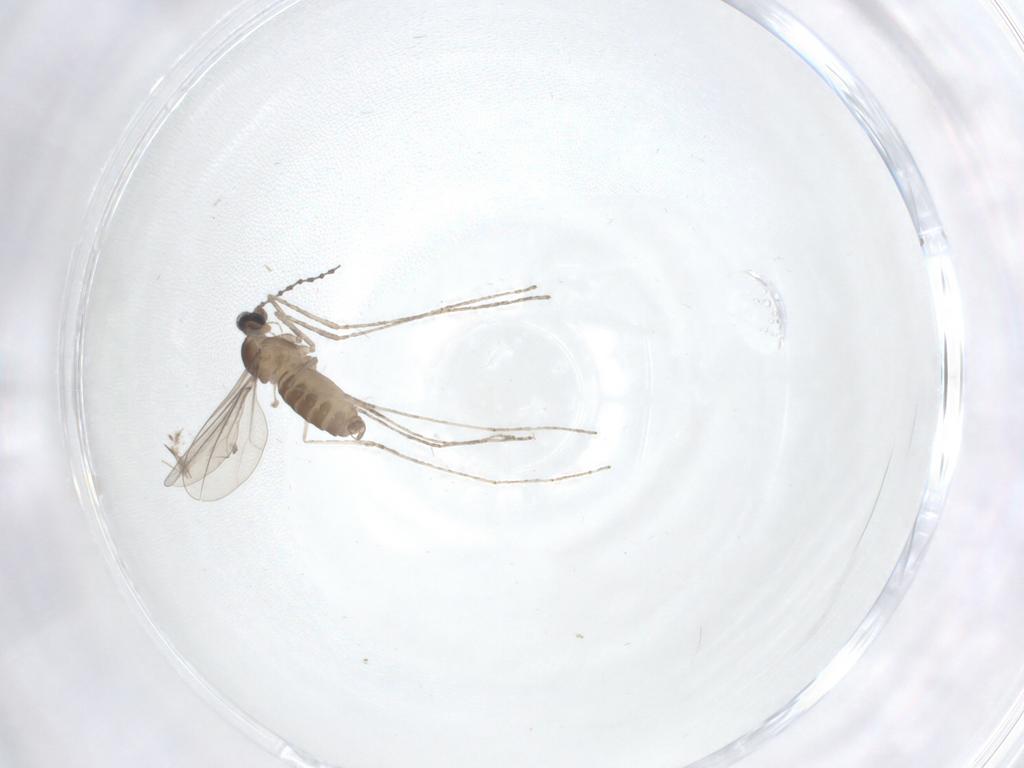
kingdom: Animalia
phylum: Arthropoda
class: Insecta
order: Diptera
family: Cecidomyiidae
